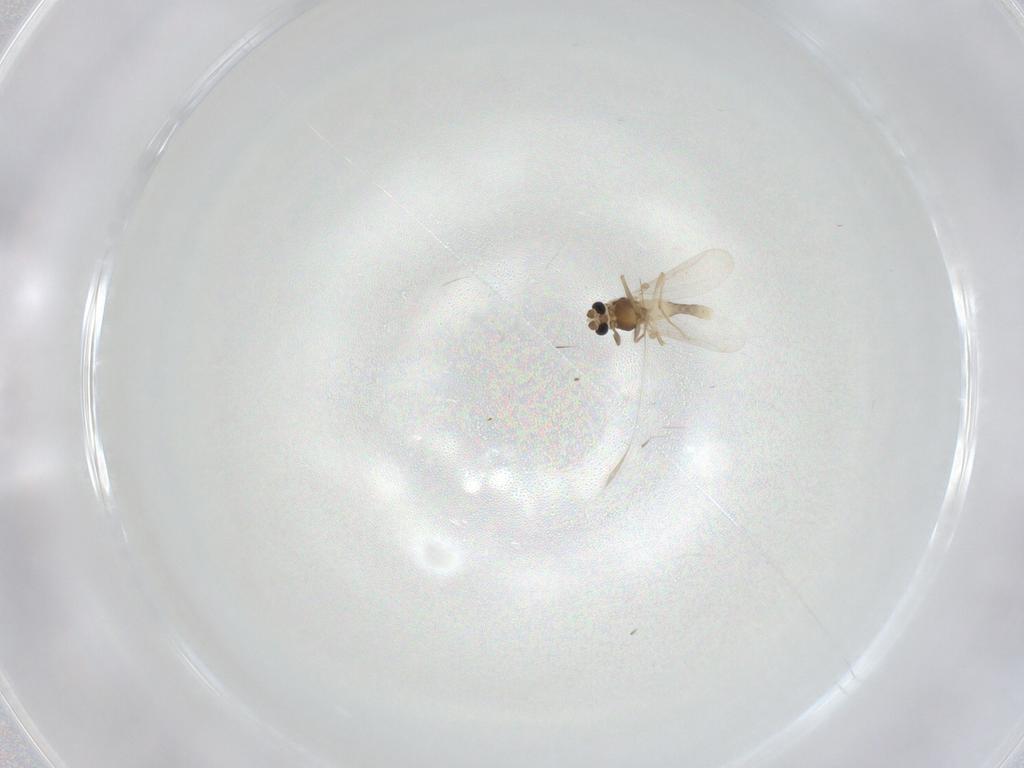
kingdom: Animalia
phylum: Arthropoda
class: Insecta
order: Diptera
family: Chironomidae
